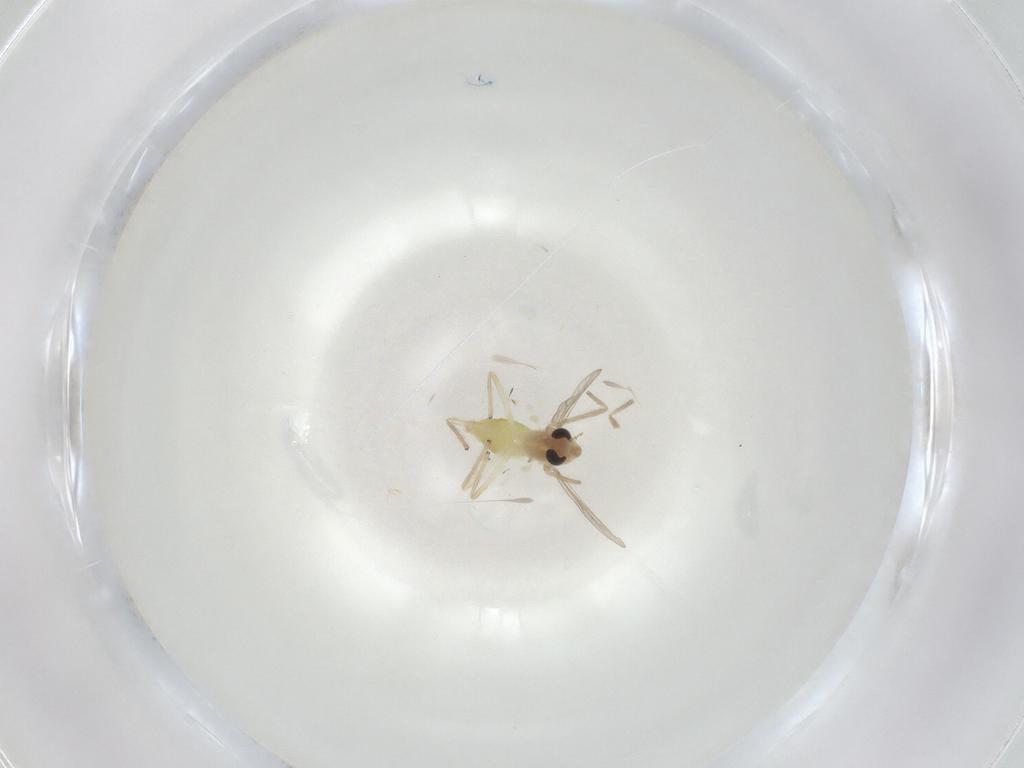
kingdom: Animalia
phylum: Arthropoda
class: Insecta
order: Diptera
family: Chironomidae
